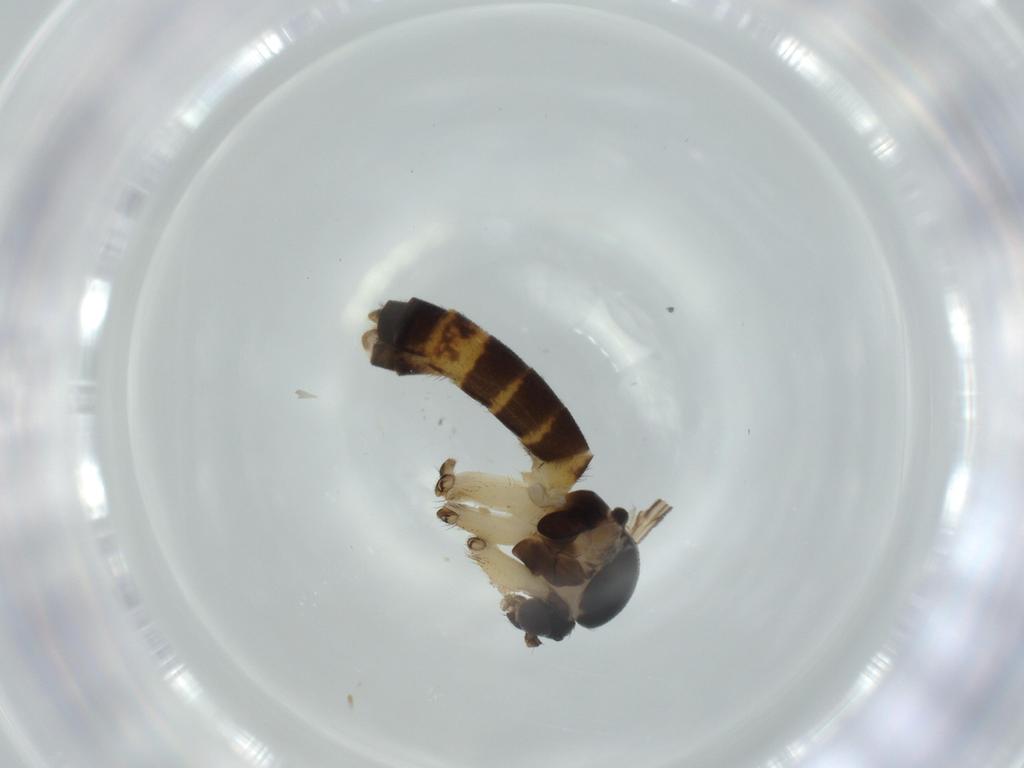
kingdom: Animalia
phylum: Arthropoda
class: Insecta
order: Diptera
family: Mycetophilidae
